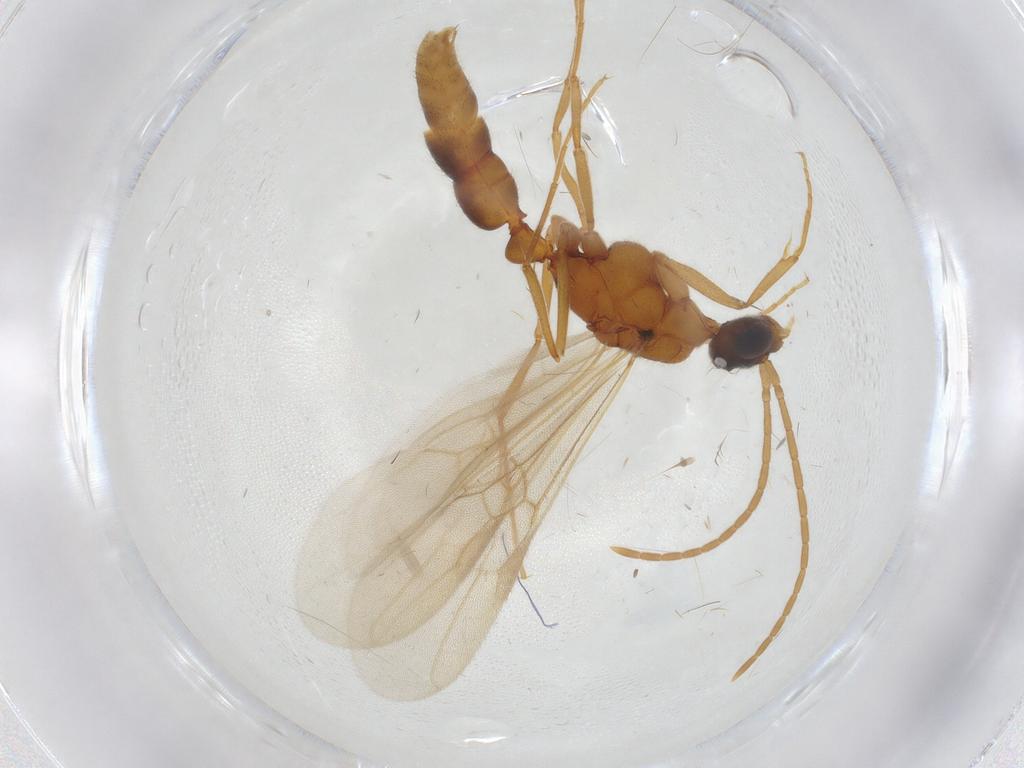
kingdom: Animalia
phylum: Arthropoda
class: Insecta
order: Hymenoptera
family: Formicidae
